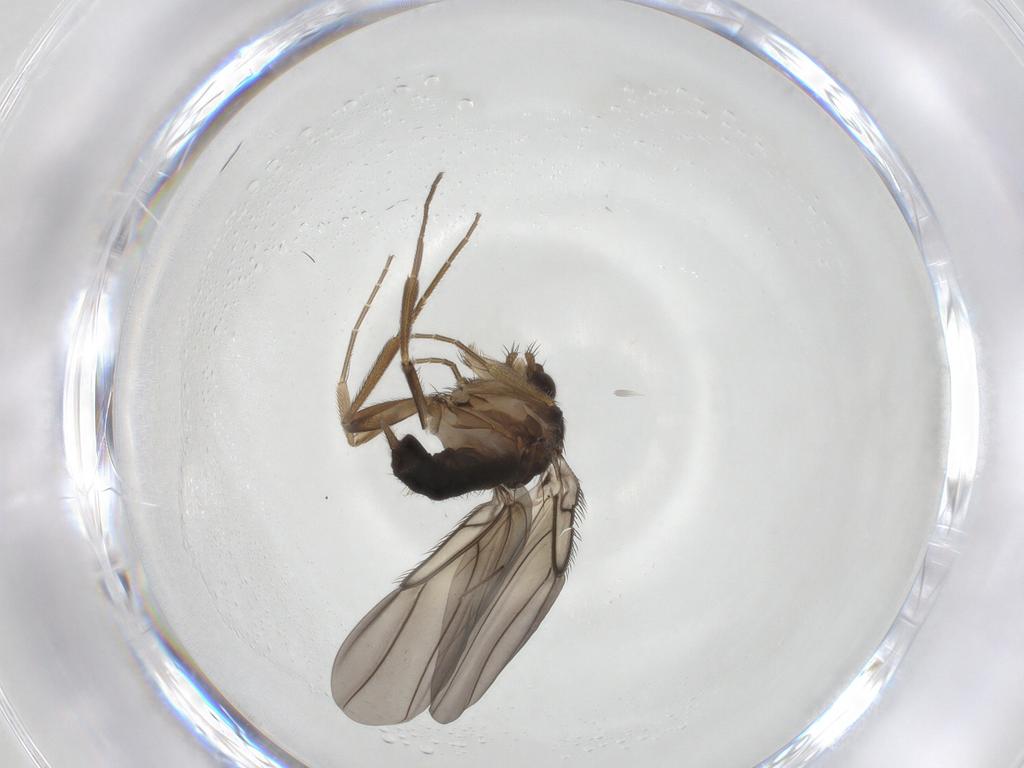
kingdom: Animalia
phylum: Arthropoda
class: Insecta
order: Diptera
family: Phoridae
